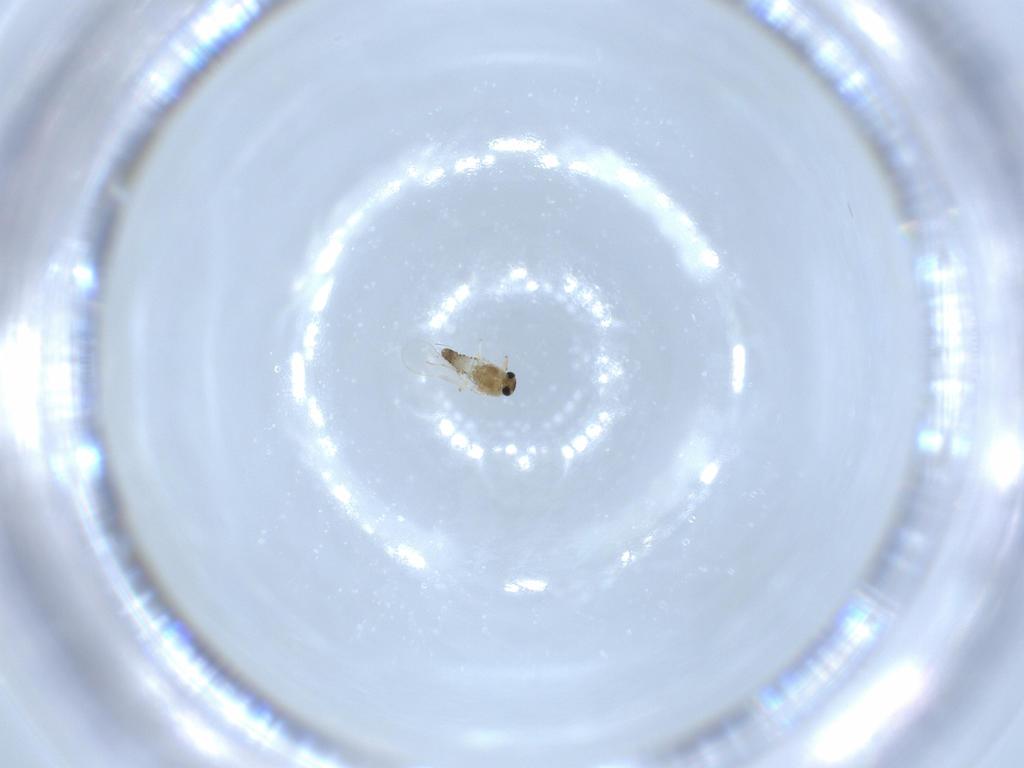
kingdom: Animalia
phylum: Arthropoda
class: Insecta
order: Diptera
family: Chironomidae
